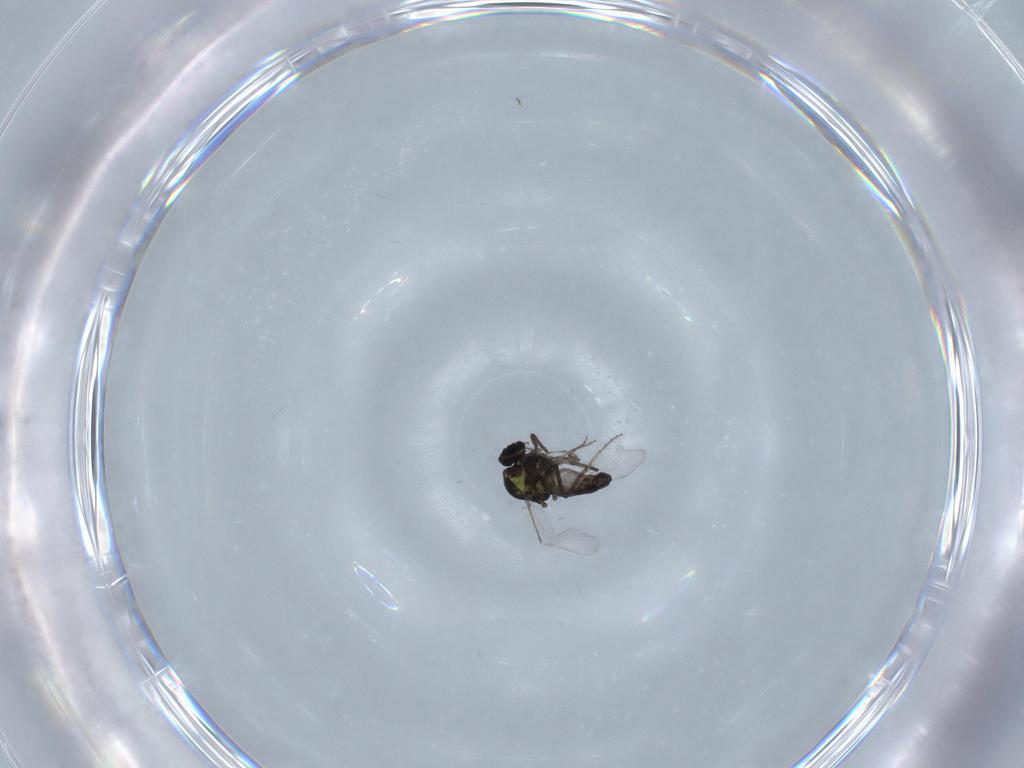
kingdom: Animalia
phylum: Arthropoda
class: Insecta
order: Diptera
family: Ceratopogonidae
